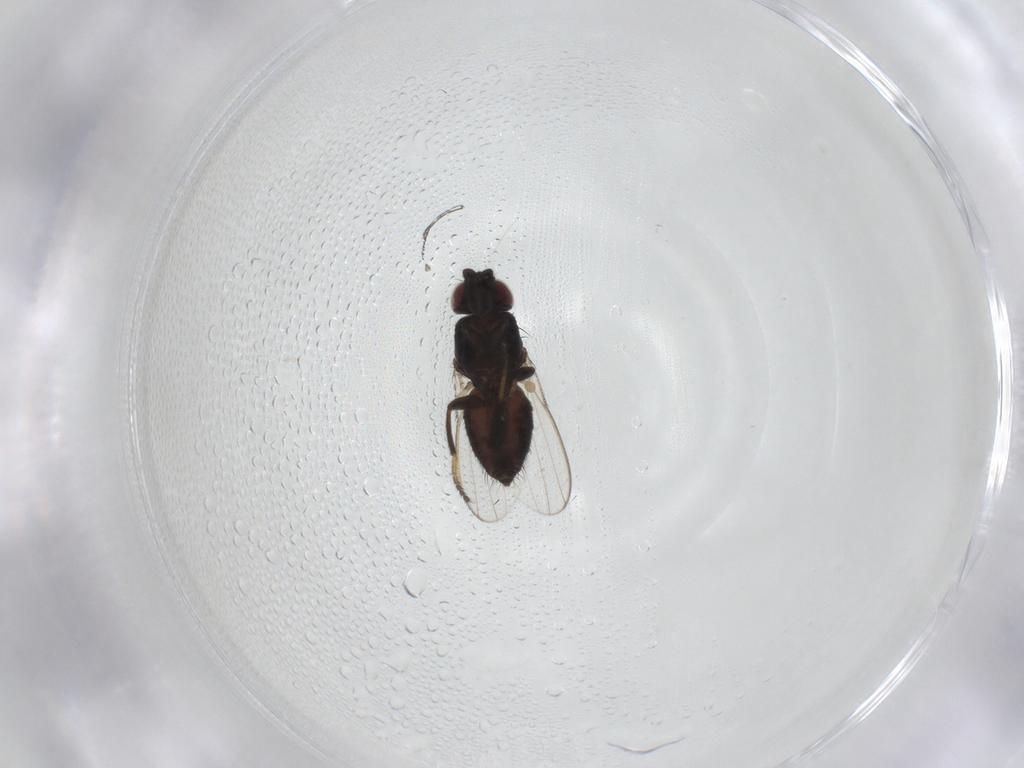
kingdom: Animalia
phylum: Arthropoda
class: Insecta
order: Diptera
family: Milichiidae
